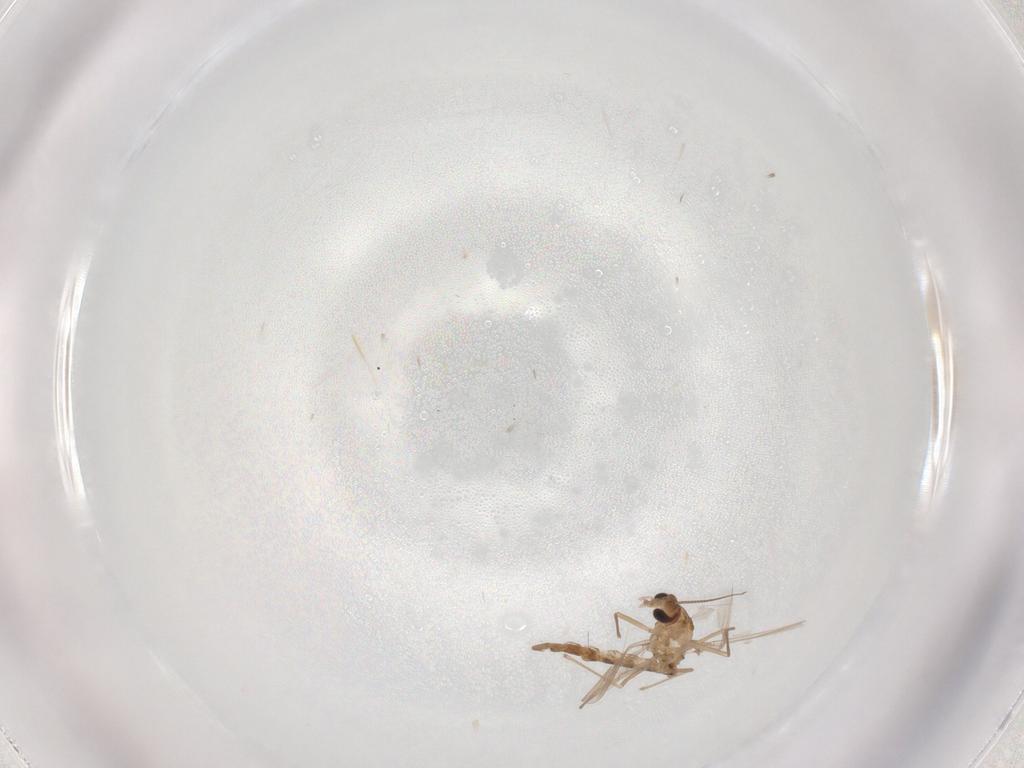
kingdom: Animalia
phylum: Arthropoda
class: Insecta
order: Diptera
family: Chironomidae
